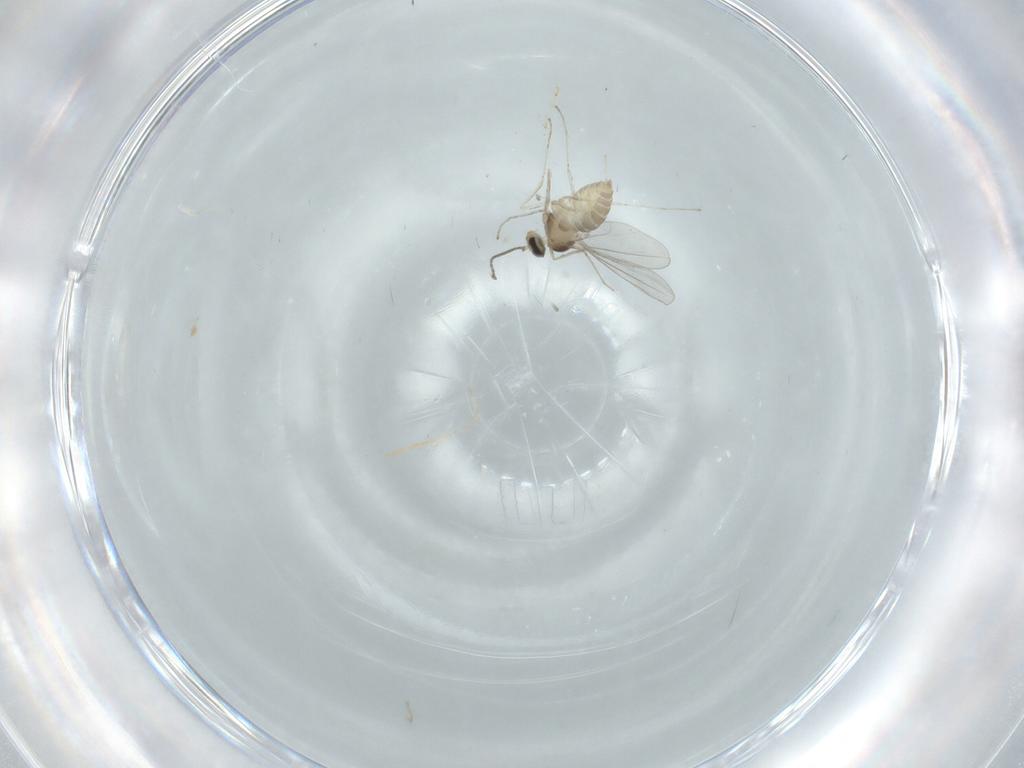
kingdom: Animalia
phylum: Arthropoda
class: Insecta
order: Diptera
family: Cecidomyiidae
